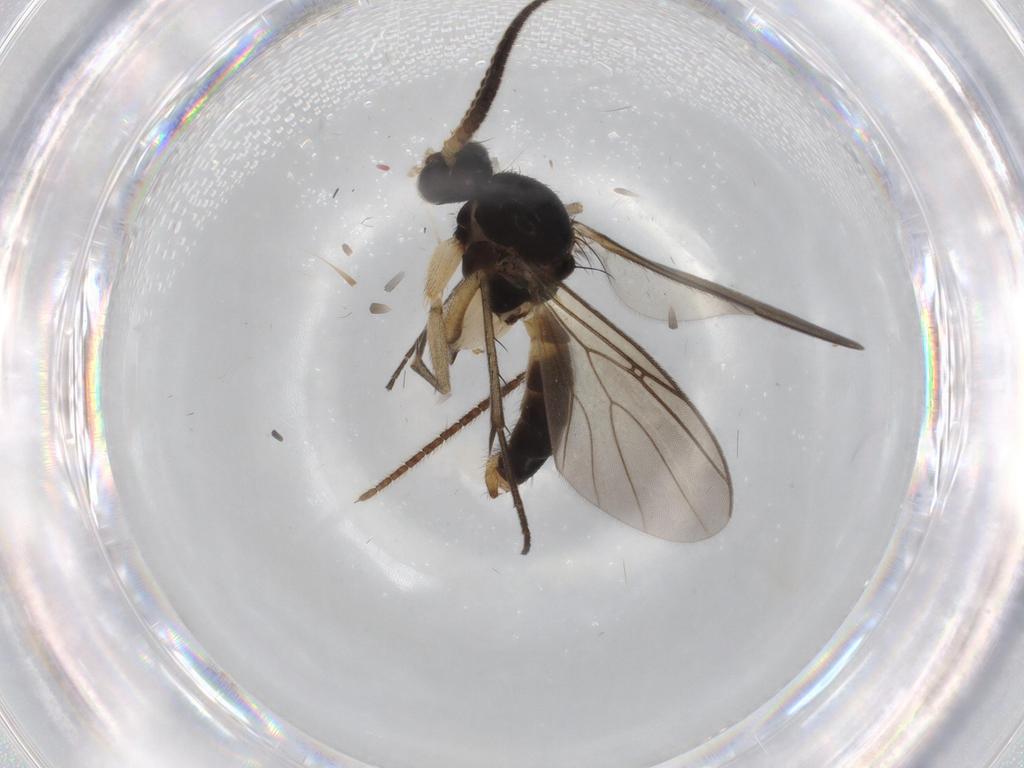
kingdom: Animalia
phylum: Arthropoda
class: Insecta
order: Diptera
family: Sciaridae
